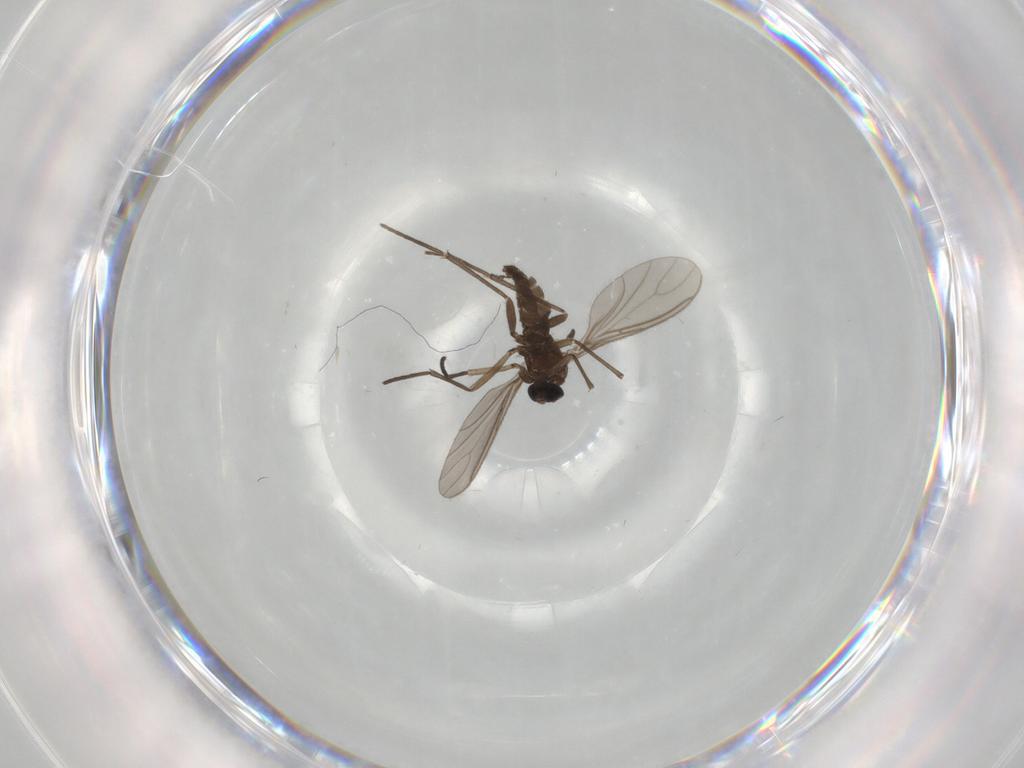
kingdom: Animalia
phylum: Arthropoda
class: Insecta
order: Diptera
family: Sciaridae
